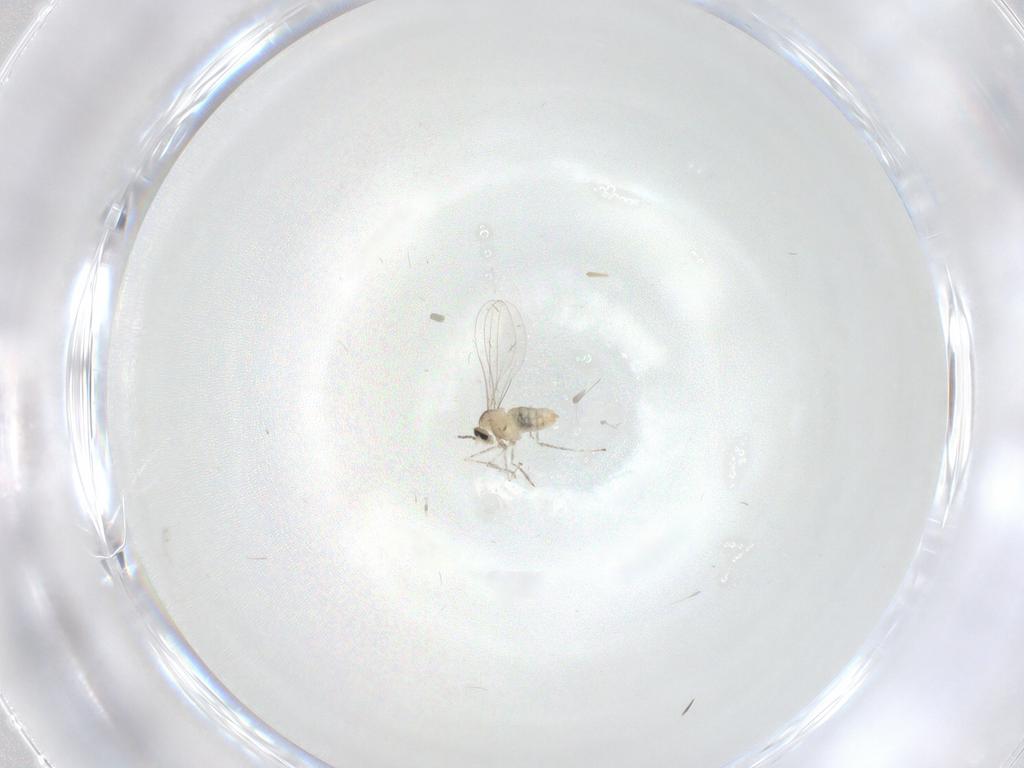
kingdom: Animalia
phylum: Arthropoda
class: Insecta
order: Diptera
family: Cecidomyiidae
